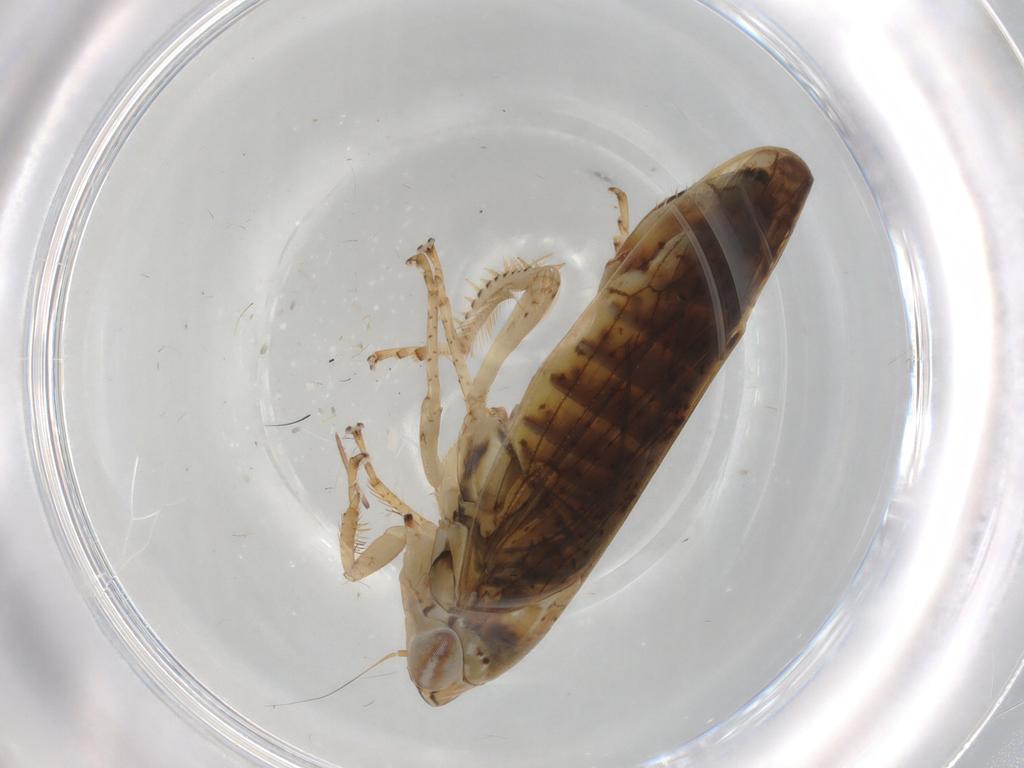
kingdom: Animalia
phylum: Arthropoda
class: Insecta
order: Hemiptera
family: Cicadellidae
